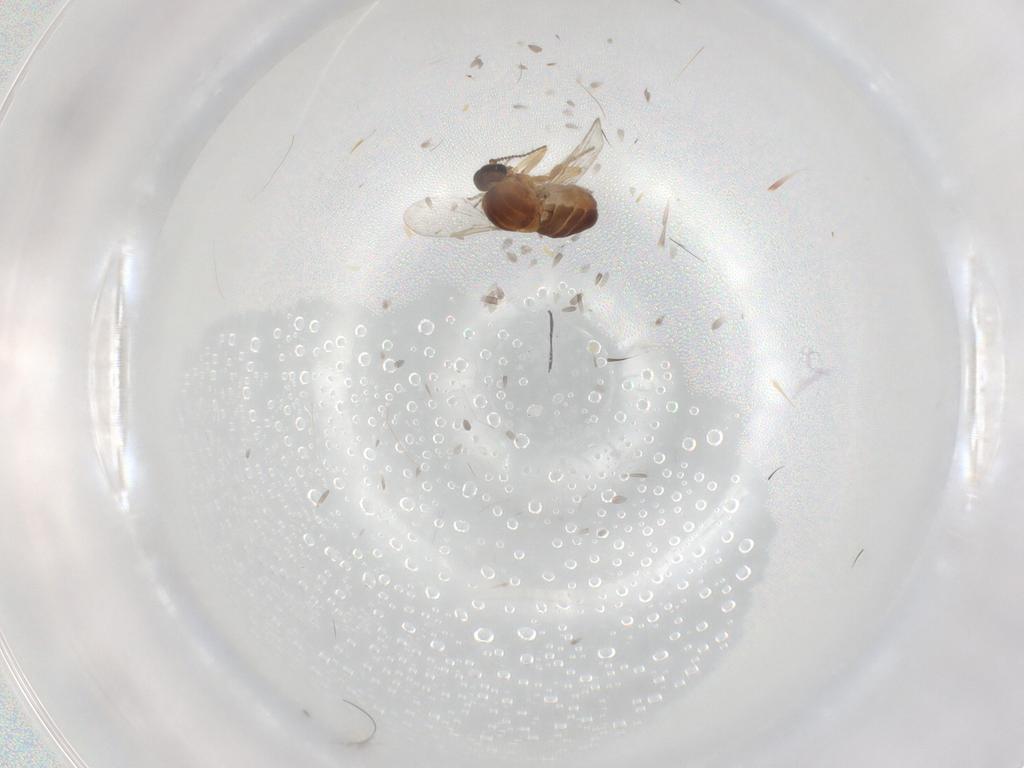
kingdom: Animalia
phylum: Arthropoda
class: Insecta
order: Diptera
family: Ceratopogonidae
